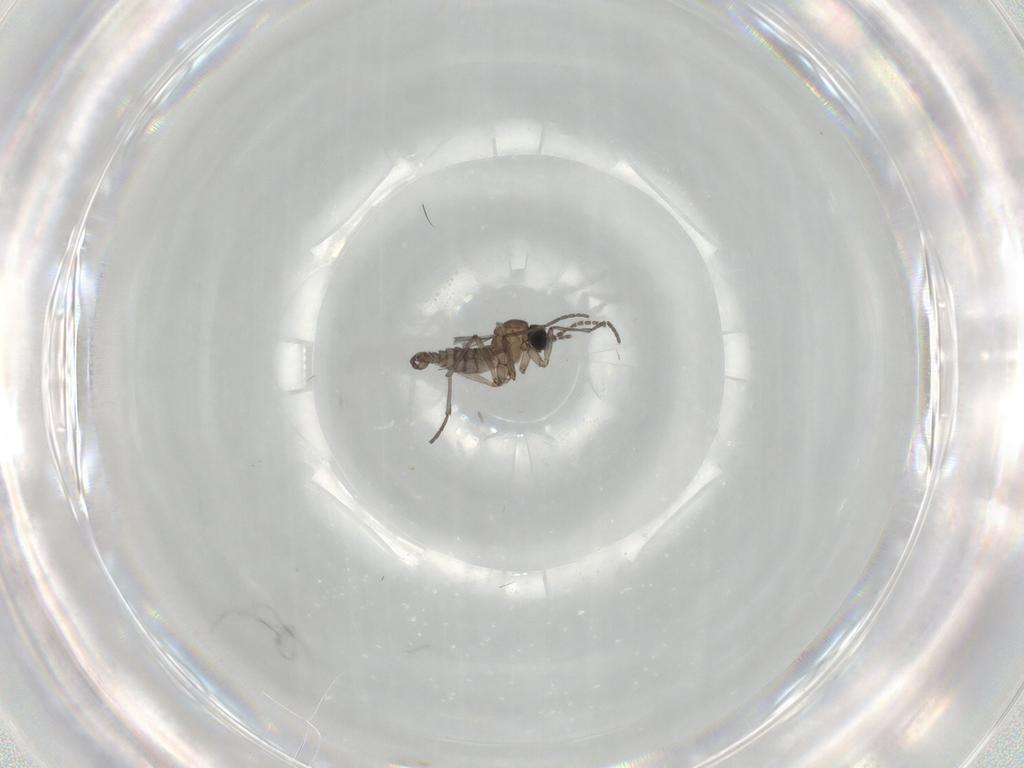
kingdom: Animalia
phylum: Arthropoda
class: Insecta
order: Diptera
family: Sciaridae
